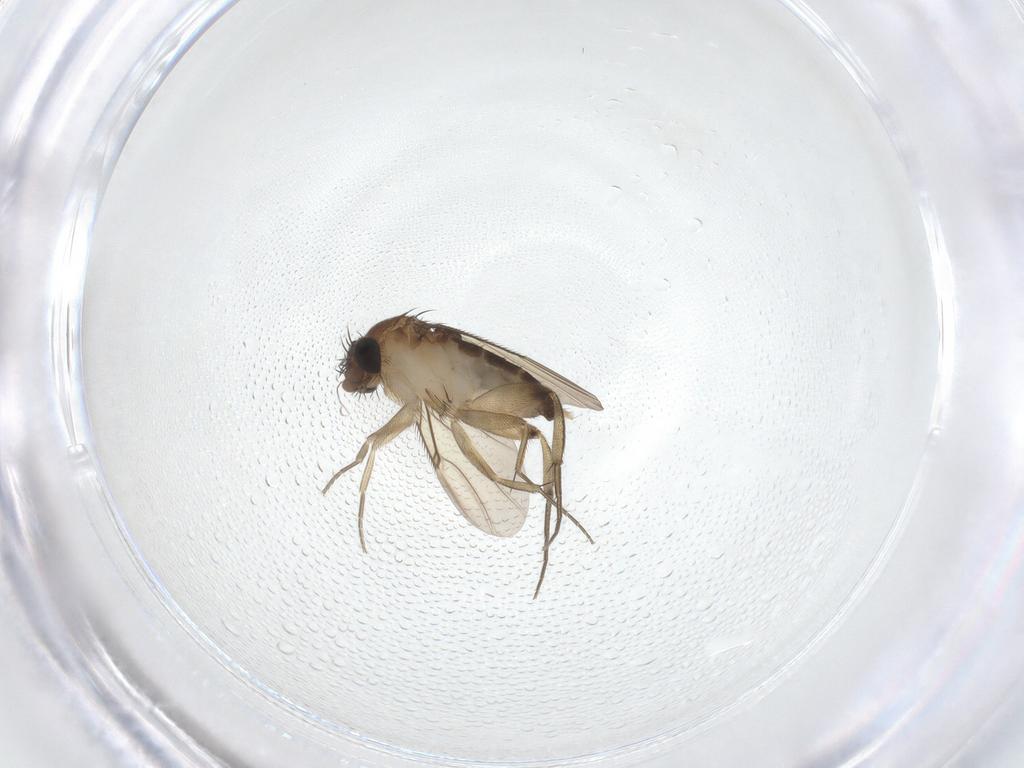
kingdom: Animalia
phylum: Arthropoda
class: Insecta
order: Diptera
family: Phoridae
